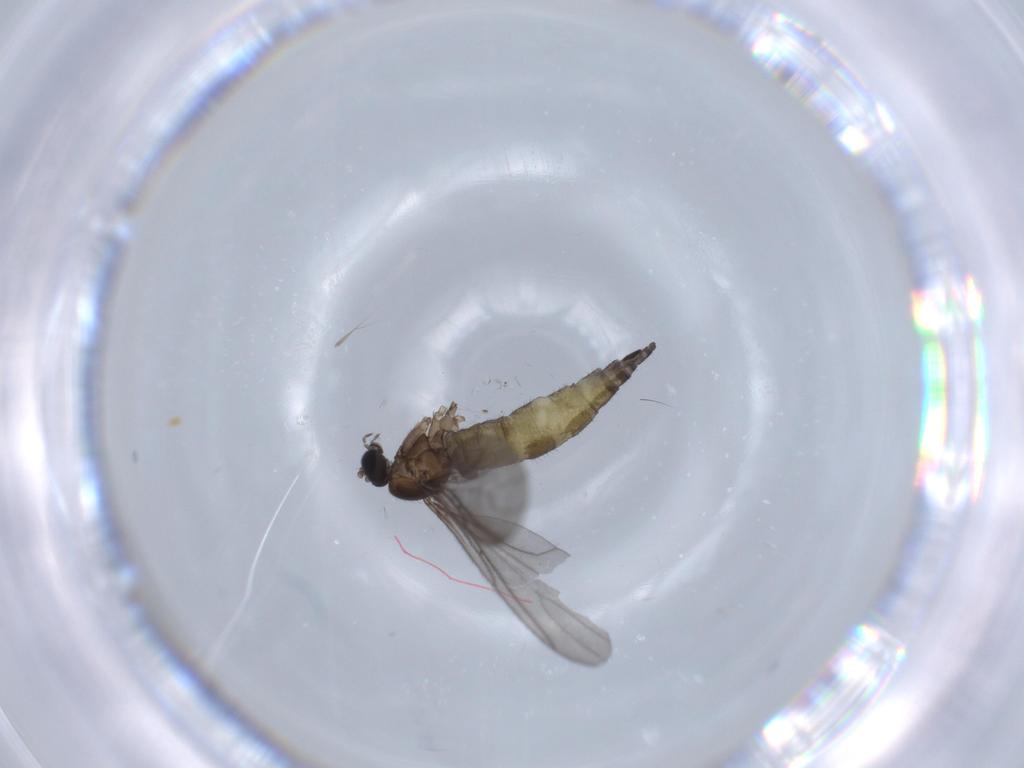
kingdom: Animalia
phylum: Arthropoda
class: Insecta
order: Diptera
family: Sciaridae
